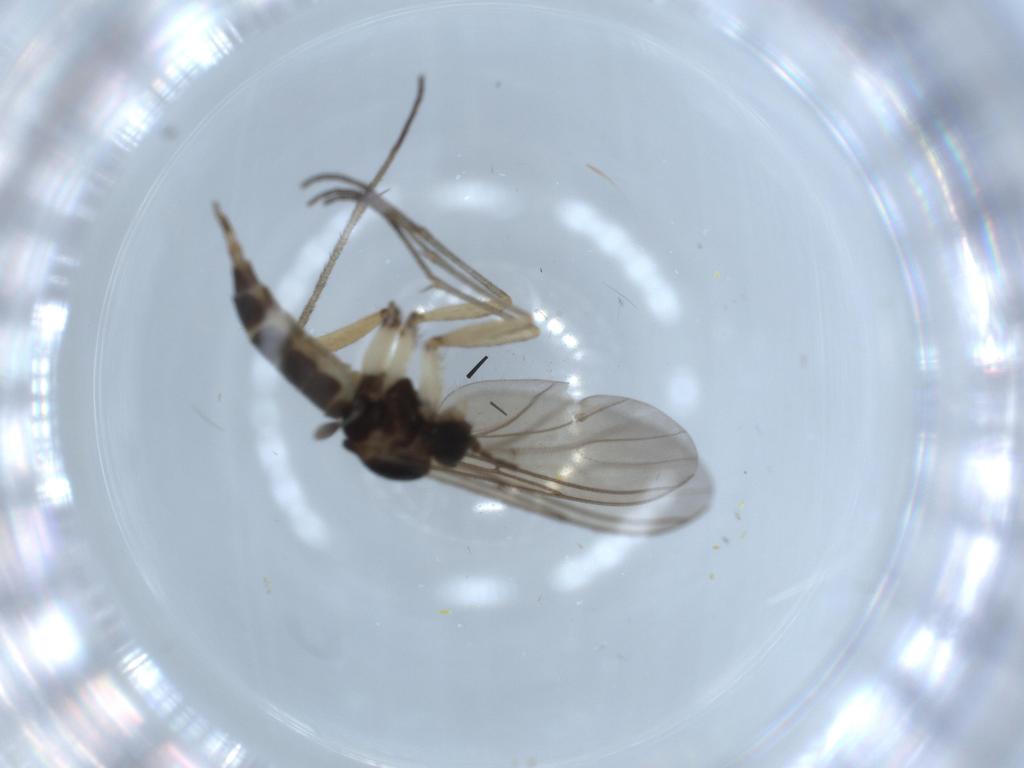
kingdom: Animalia
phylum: Arthropoda
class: Insecta
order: Diptera
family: Sciaridae
